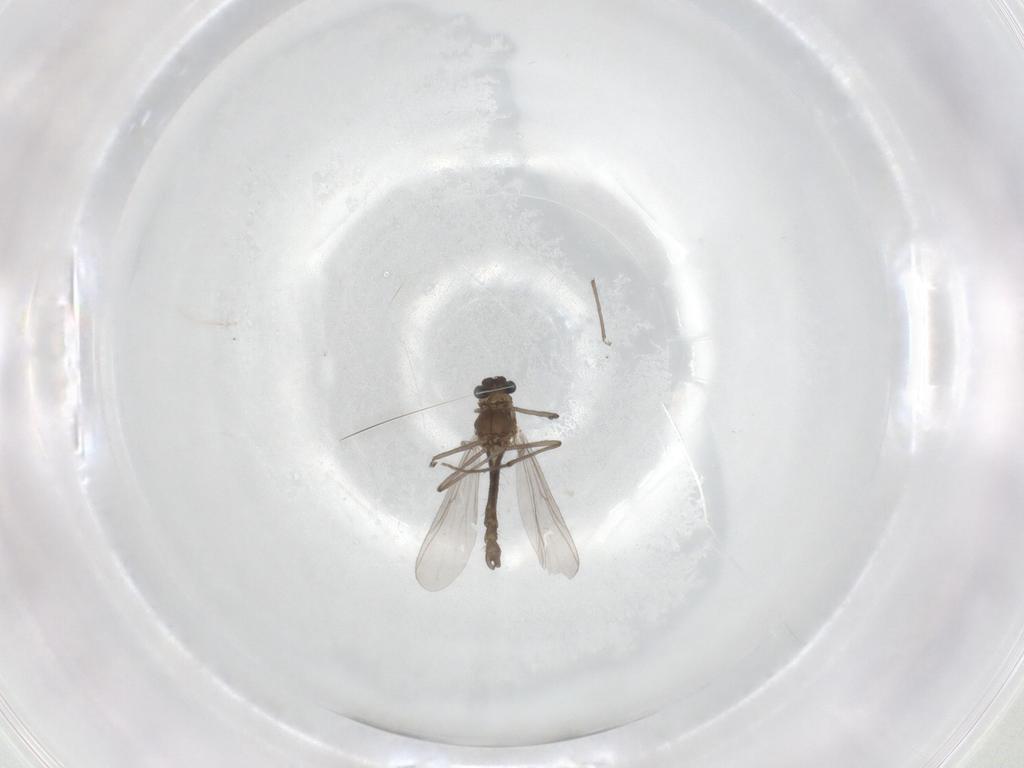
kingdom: Animalia
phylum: Arthropoda
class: Insecta
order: Diptera
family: Chironomidae
